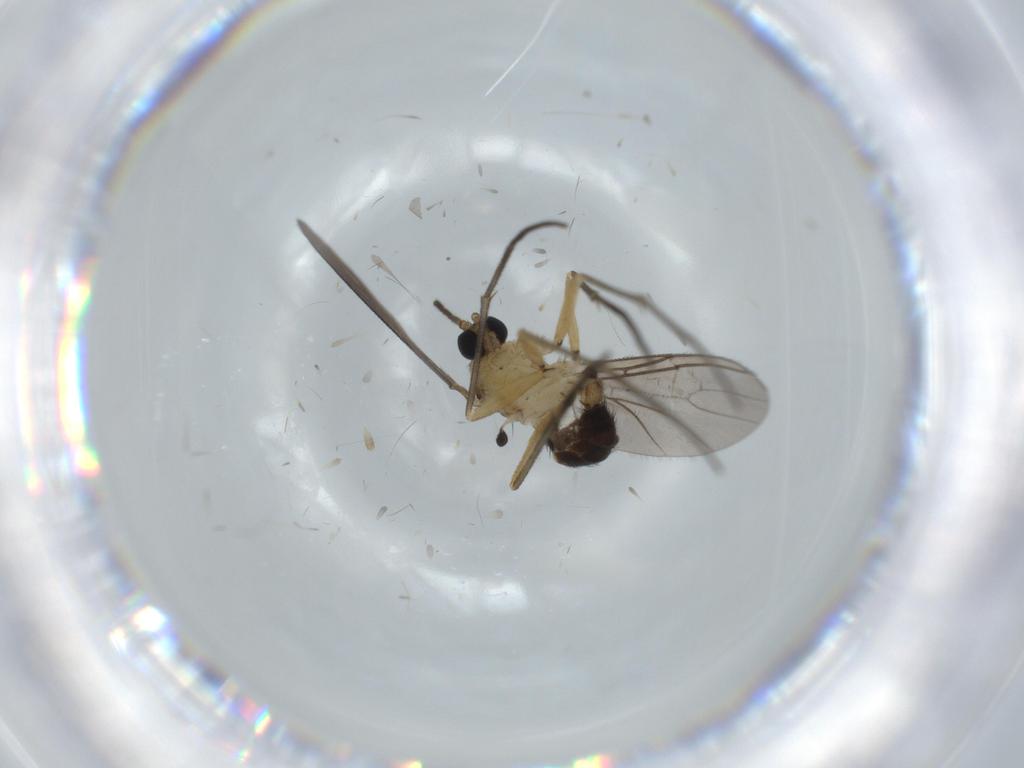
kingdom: Animalia
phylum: Arthropoda
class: Insecta
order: Diptera
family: Sciaridae
